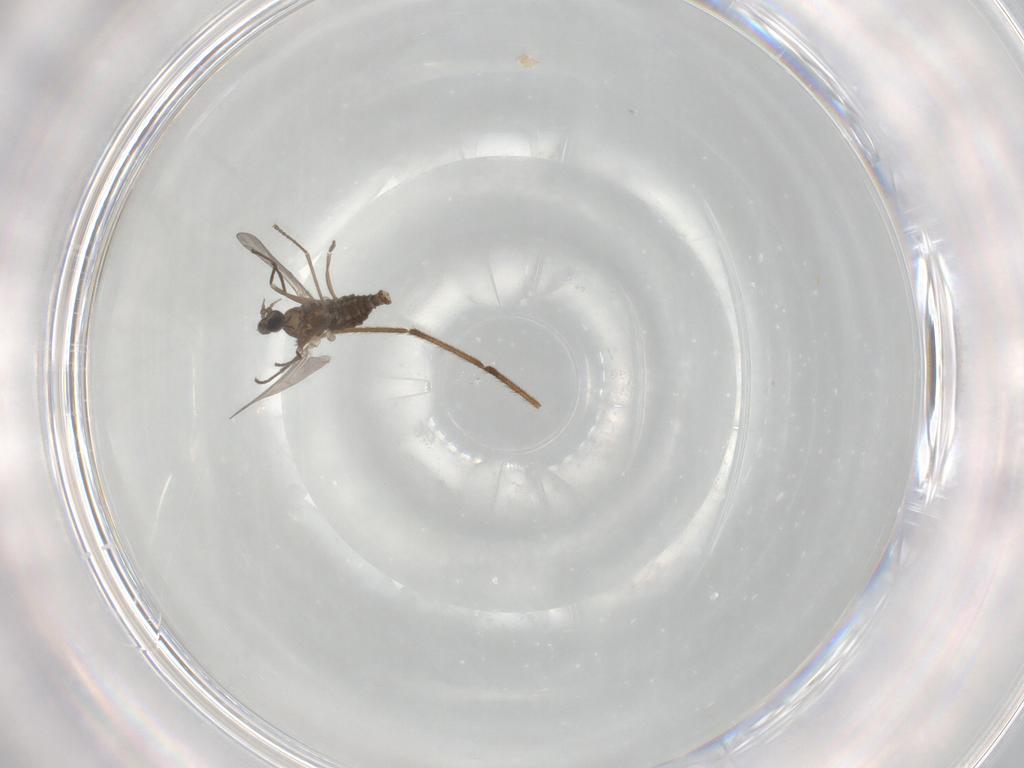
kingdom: Animalia
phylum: Arthropoda
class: Insecta
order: Diptera
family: Cecidomyiidae
